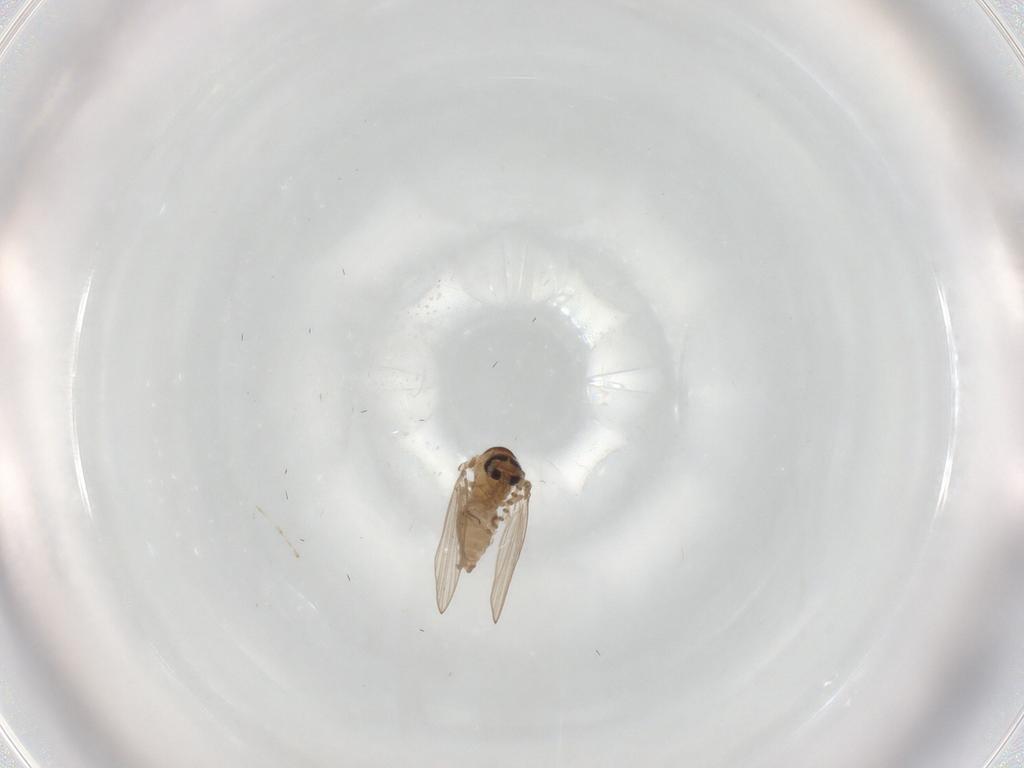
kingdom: Animalia
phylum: Arthropoda
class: Insecta
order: Diptera
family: Psychodidae
